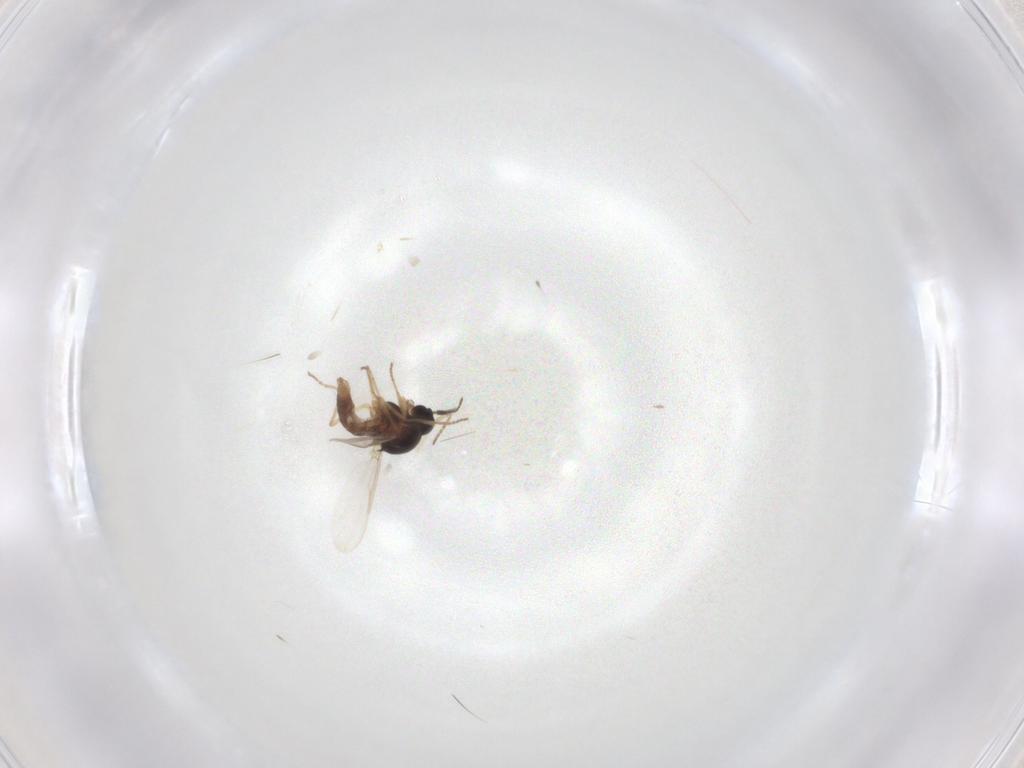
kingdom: Animalia
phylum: Arthropoda
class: Insecta
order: Diptera
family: Ceratopogonidae
